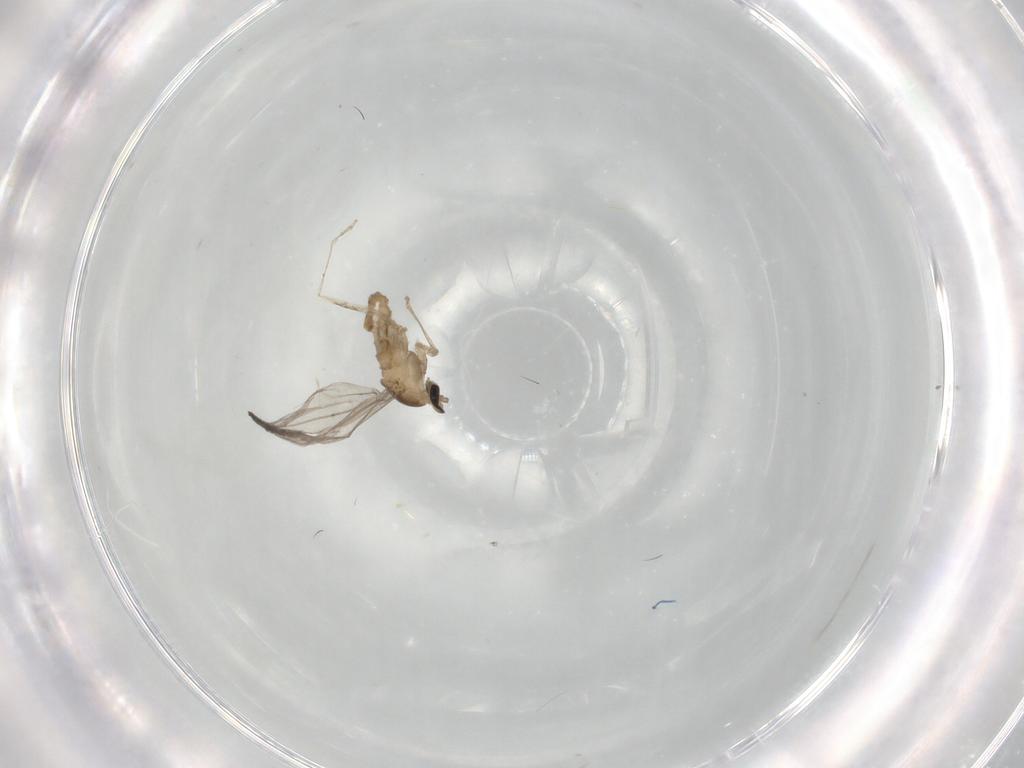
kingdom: Animalia
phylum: Arthropoda
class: Insecta
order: Diptera
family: Cecidomyiidae
